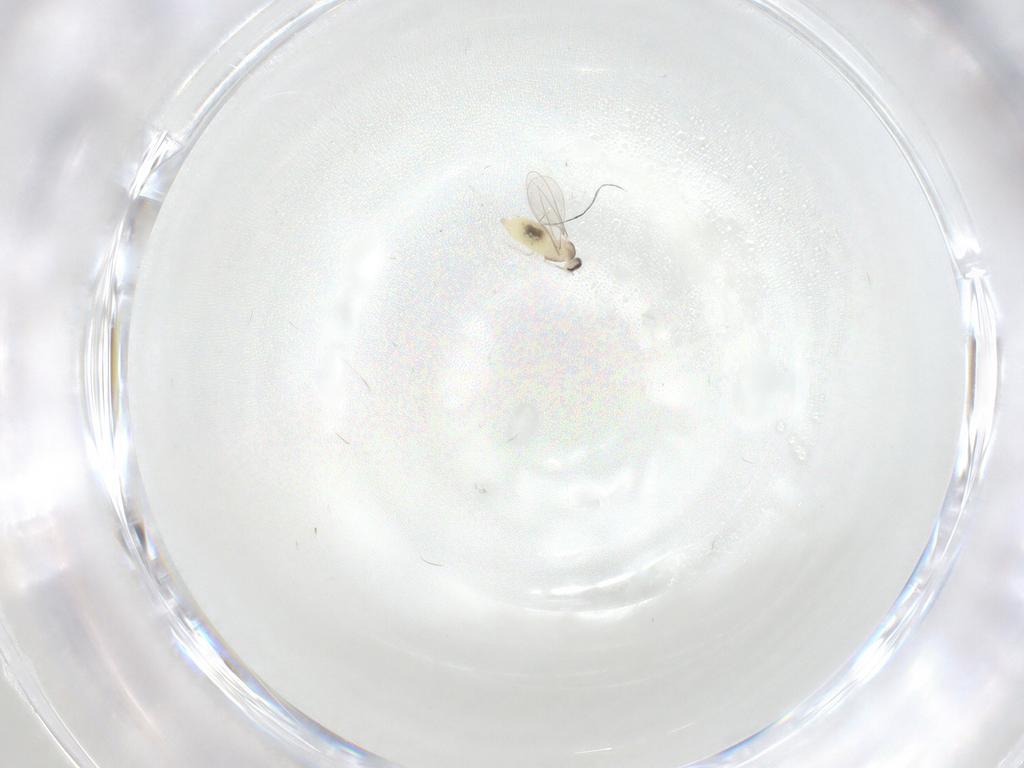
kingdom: Animalia
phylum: Arthropoda
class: Insecta
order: Diptera
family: Cecidomyiidae
